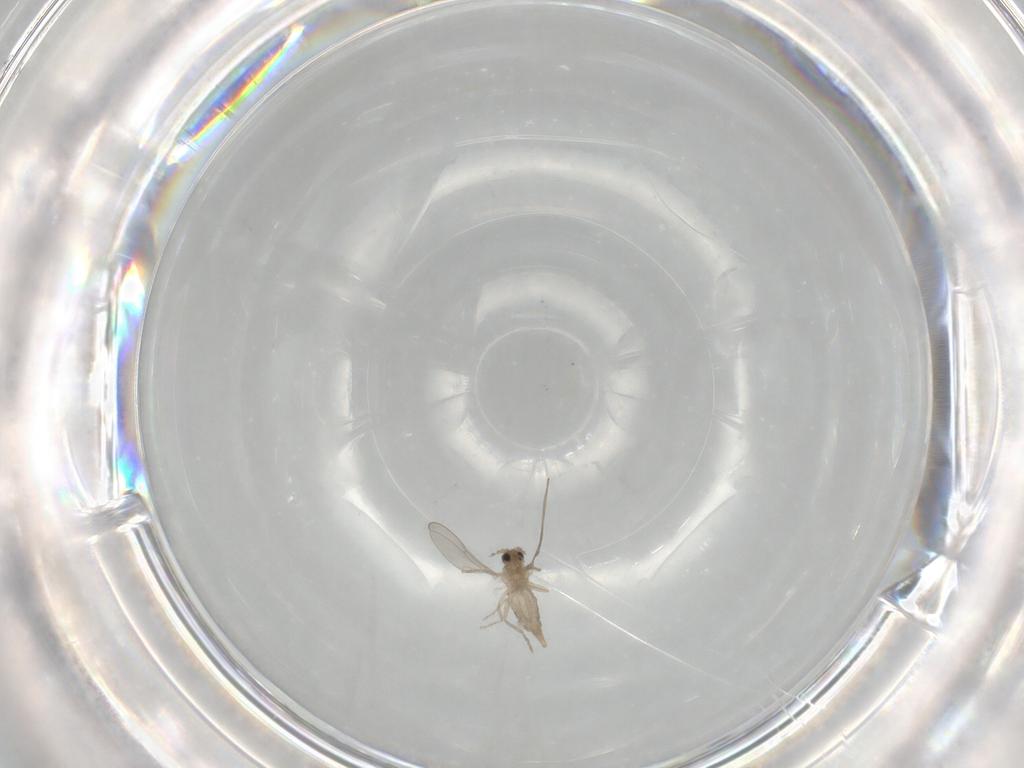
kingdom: Animalia
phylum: Arthropoda
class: Insecta
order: Diptera
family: Cecidomyiidae
